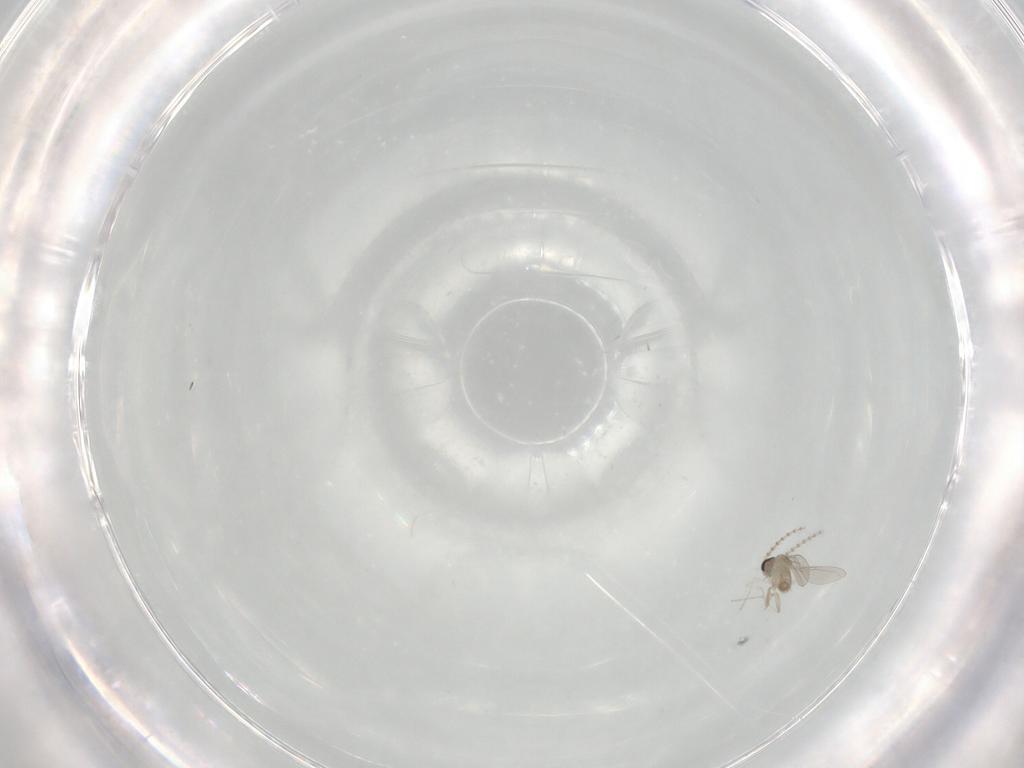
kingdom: Animalia
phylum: Arthropoda
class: Insecta
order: Diptera
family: Cecidomyiidae
